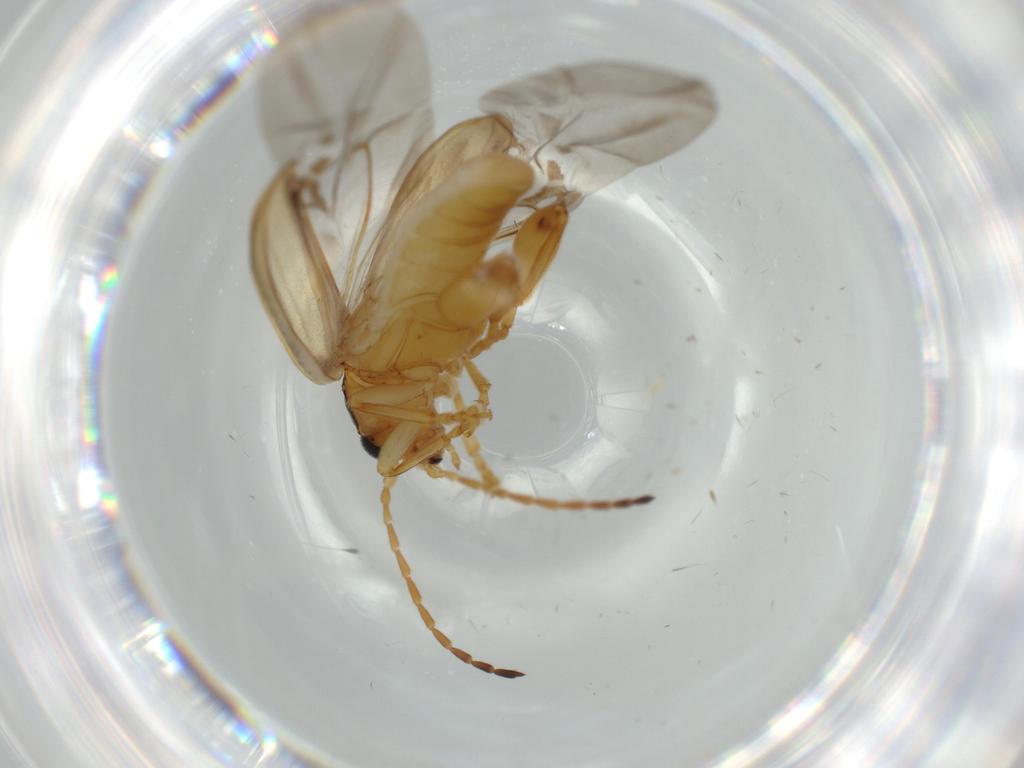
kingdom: Animalia
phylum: Arthropoda
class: Insecta
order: Coleoptera
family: Chrysomelidae
